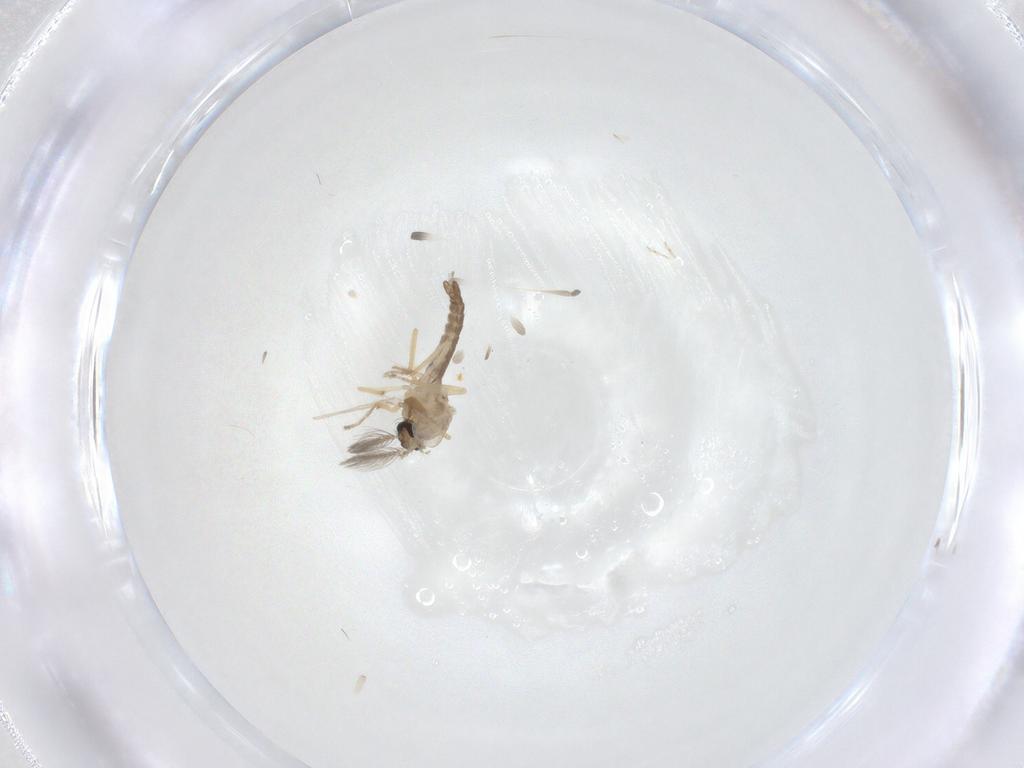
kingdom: Animalia
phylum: Arthropoda
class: Insecta
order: Diptera
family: Ceratopogonidae
